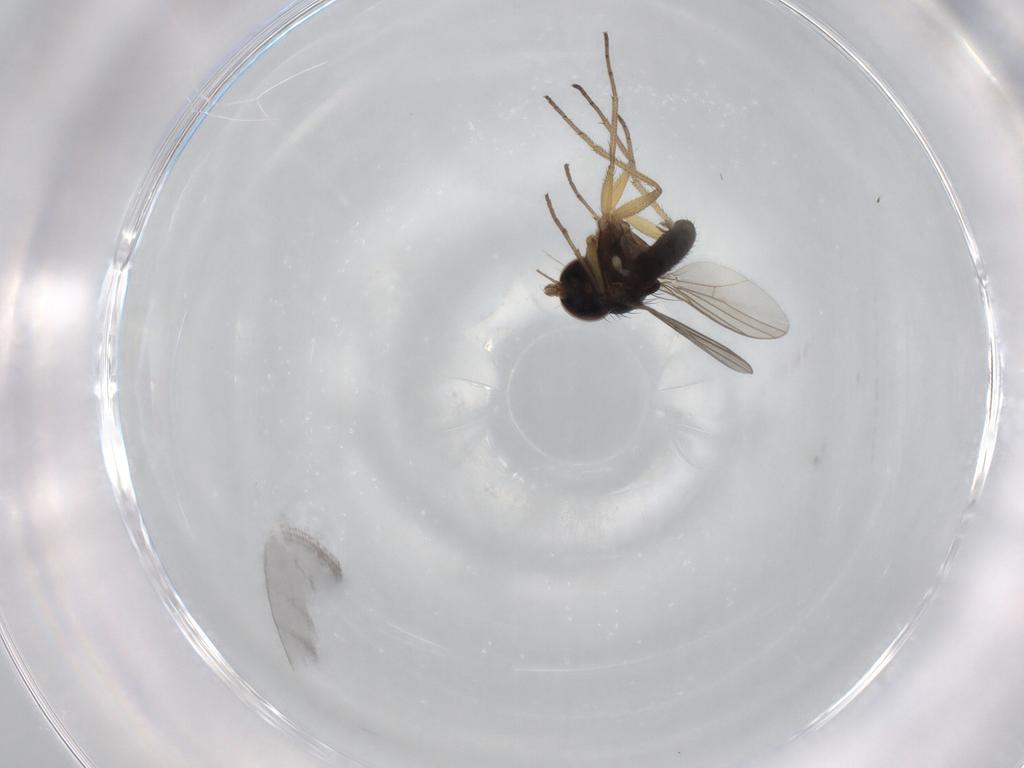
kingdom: Animalia
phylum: Arthropoda
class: Insecta
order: Diptera
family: Dolichopodidae
